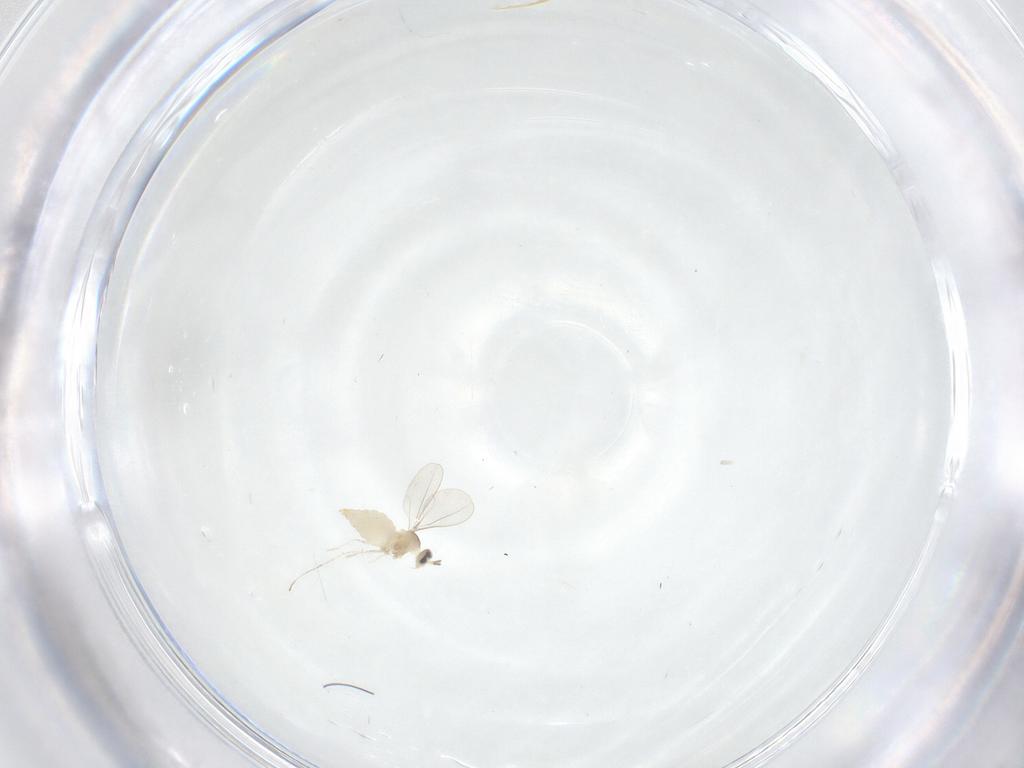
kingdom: Animalia
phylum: Arthropoda
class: Insecta
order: Diptera
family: Cecidomyiidae
